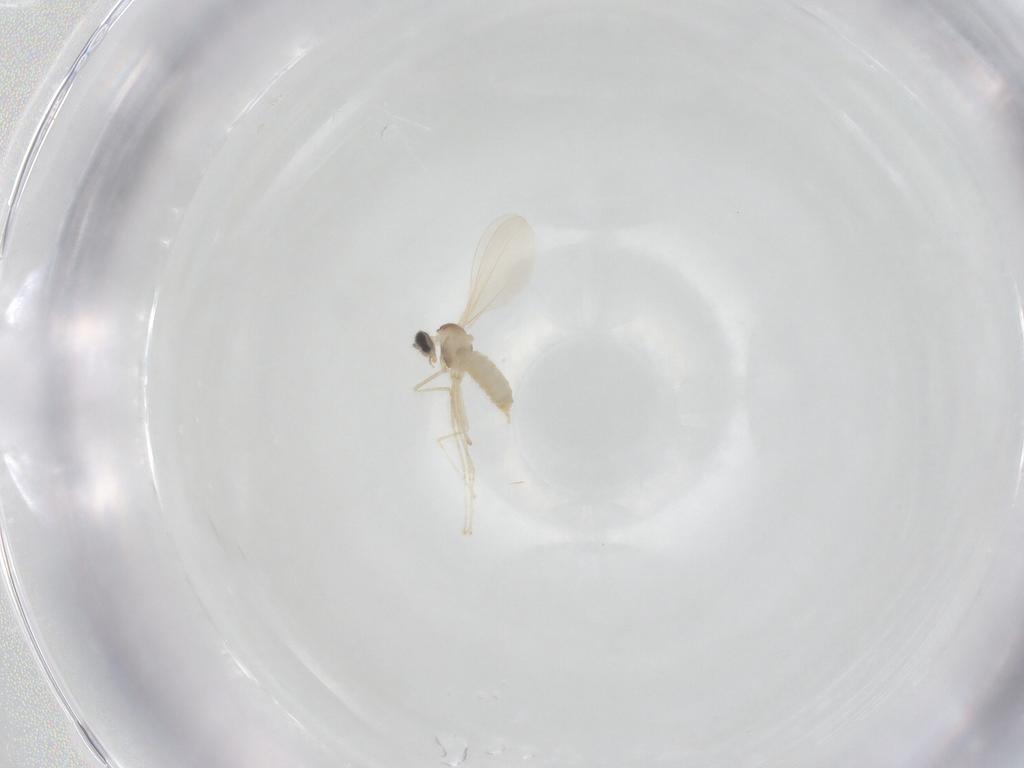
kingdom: Animalia
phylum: Arthropoda
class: Insecta
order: Diptera
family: Cecidomyiidae
